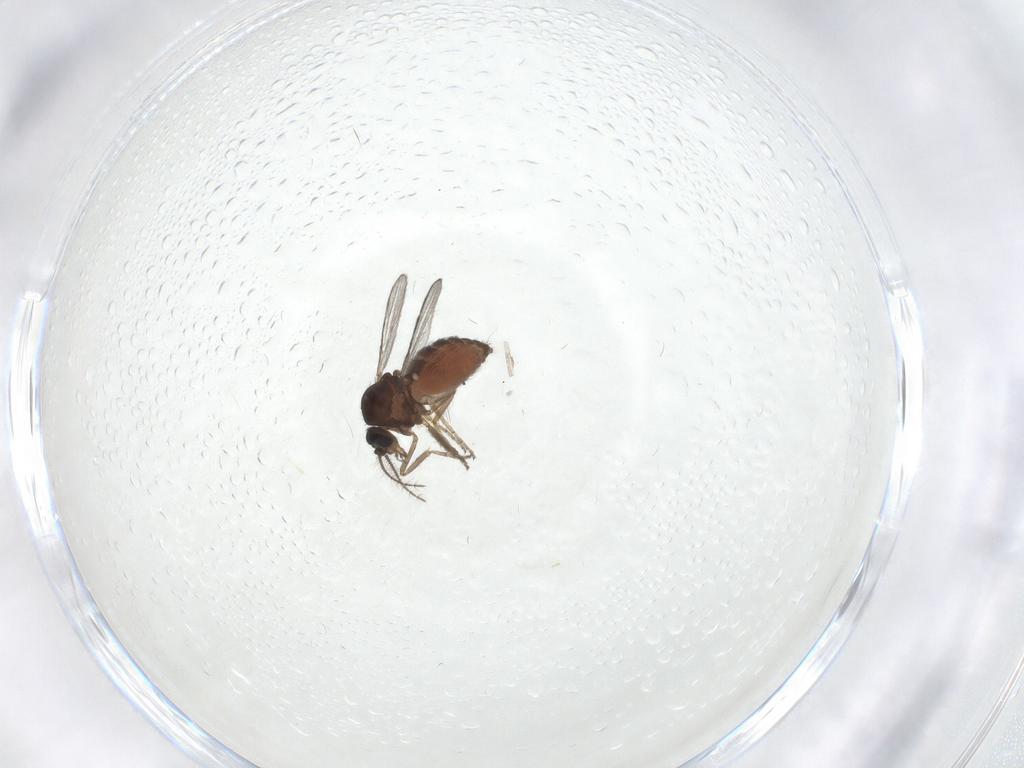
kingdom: Animalia
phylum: Arthropoda
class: Insecta
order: Diptera
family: Ceratopogonidae
